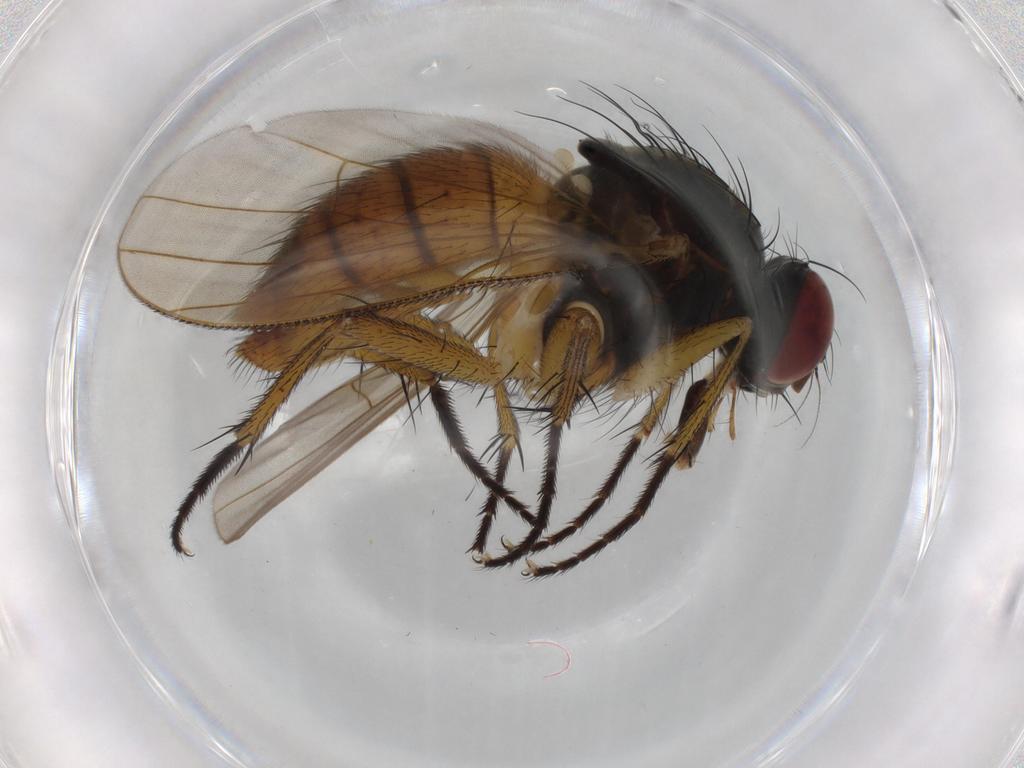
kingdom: Animalia
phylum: Arthropoda
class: Insecta
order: Diptera
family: Muscidae
